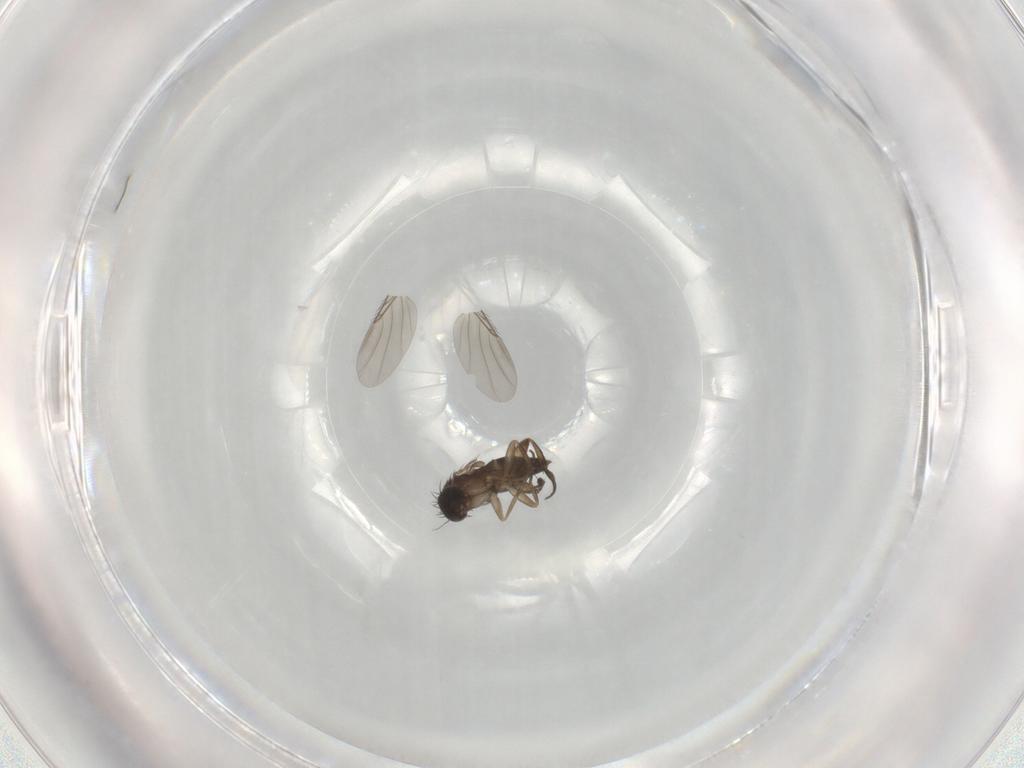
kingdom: Animalia
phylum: Arthropoda
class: Insecta
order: Diptera
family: Phoridae
